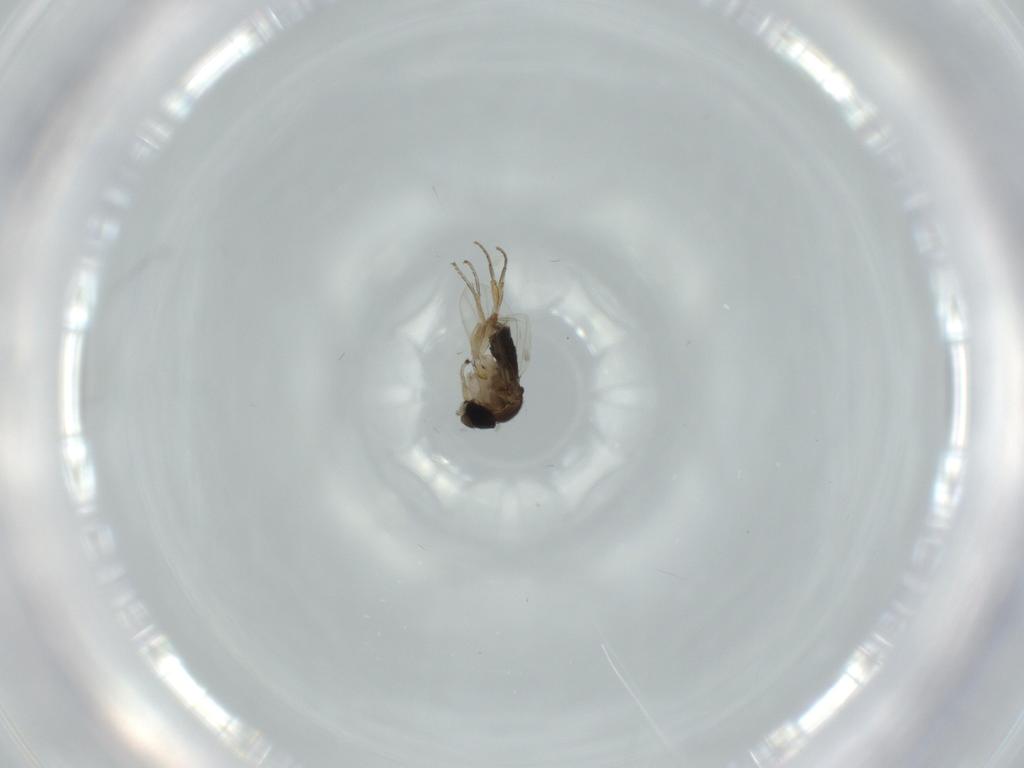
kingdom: Animalia
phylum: Arthropoda
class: Insecta
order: Diptera
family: Phoridae
